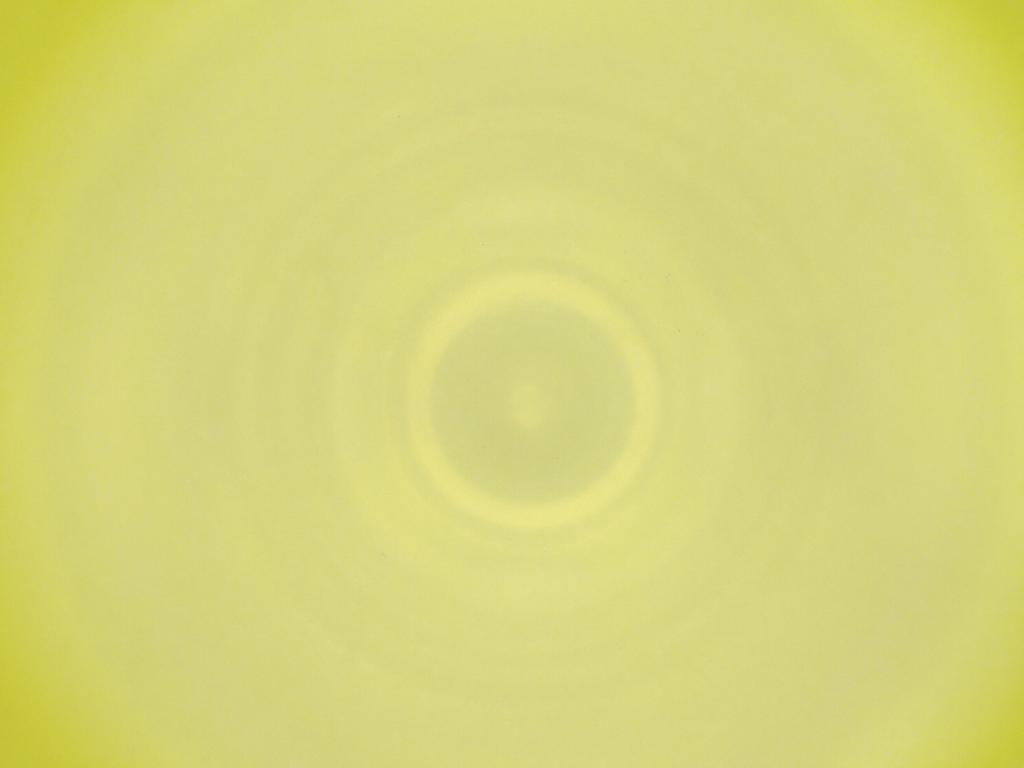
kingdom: Animalia
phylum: Arthropoda
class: Insecta
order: Diptera
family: Cecidomyiidae
